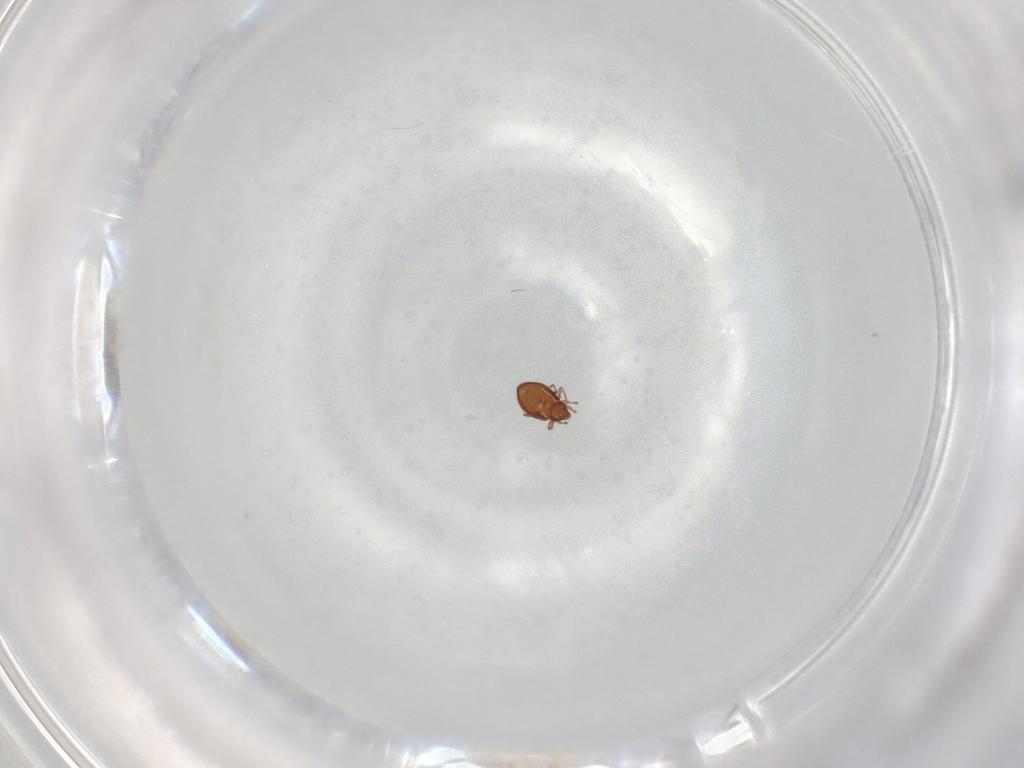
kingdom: Animalia
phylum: Arthropoda
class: Arachnida
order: Sarcoptiformes
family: Oribatulidae
